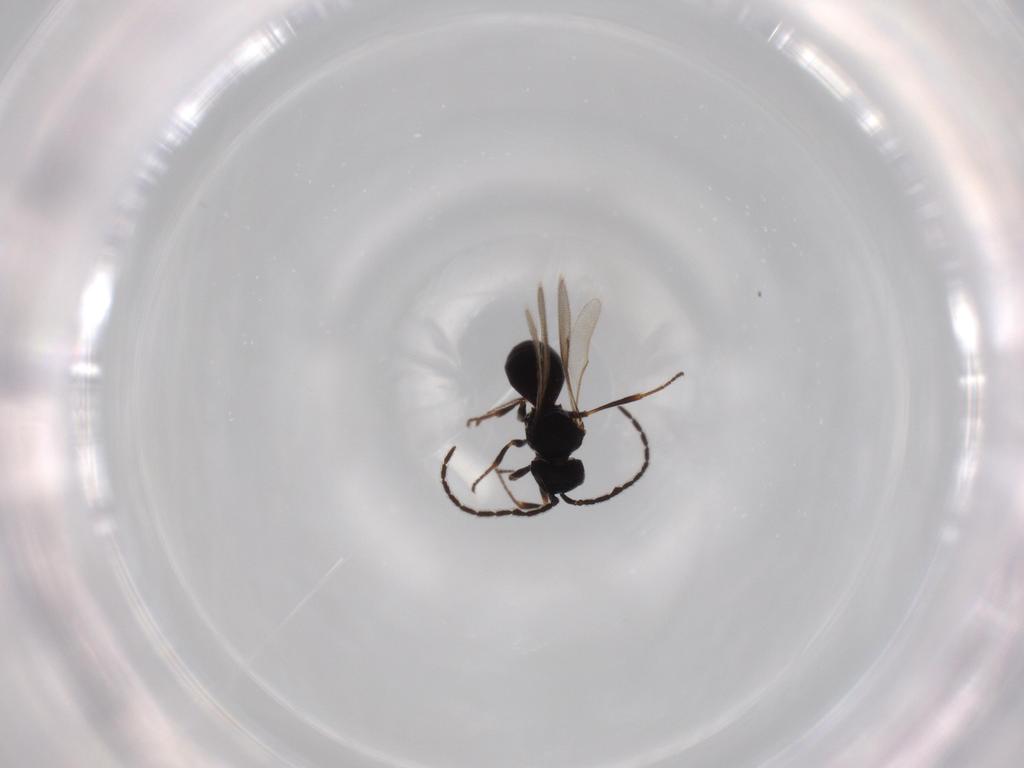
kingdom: Animalia
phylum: Arthropoda
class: Insecta
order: Hymenoptera
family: Scelionidae
